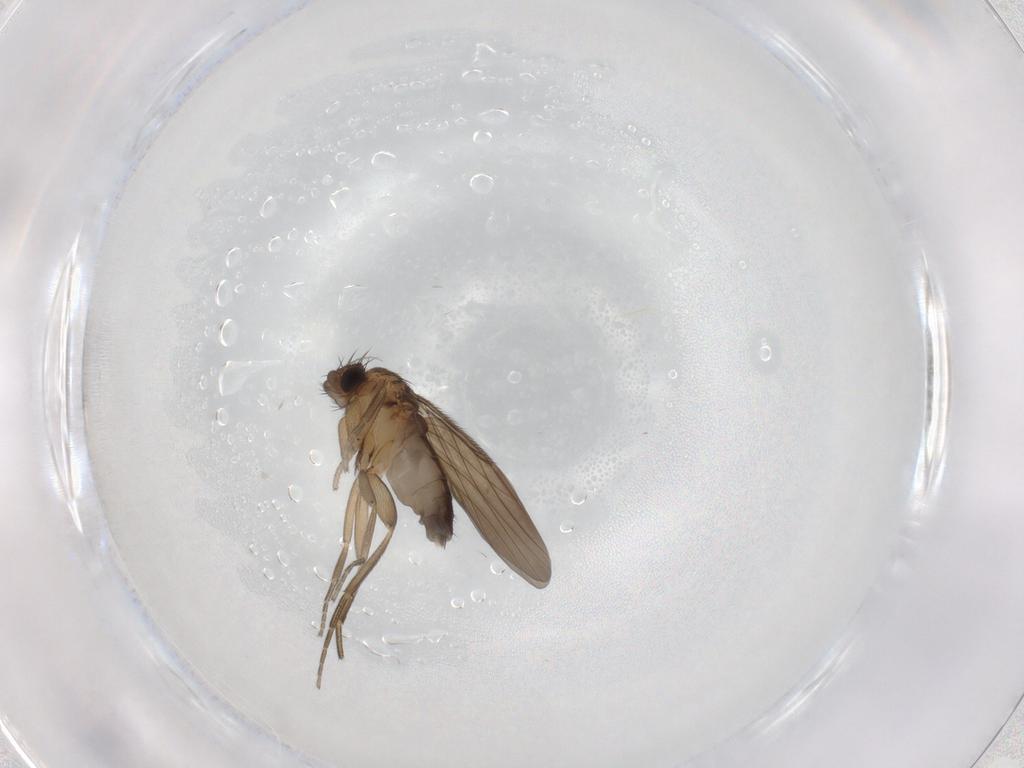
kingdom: Animalia
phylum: Arthropoda
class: Insecta
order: Diptera
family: Phoridae
